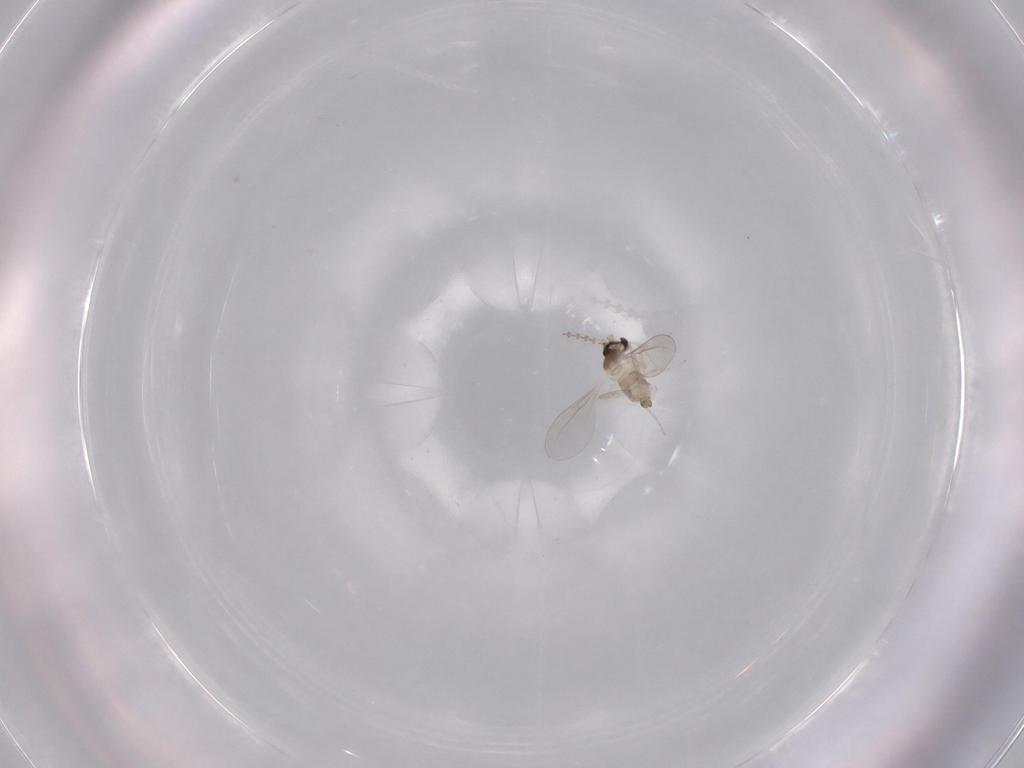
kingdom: Animalia
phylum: Arthropoda
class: Insecta
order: Diptera
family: Cecidomyiidae
